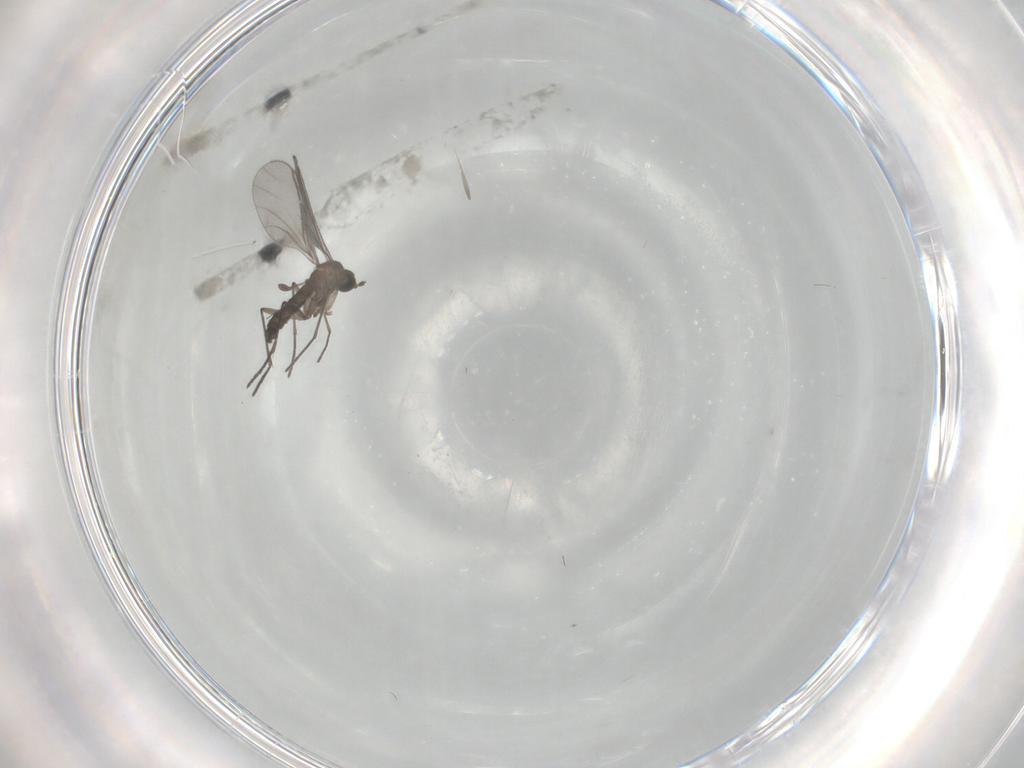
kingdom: Animalia
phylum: Arthropoda
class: Insecta
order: Diptera
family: Sciaridae
